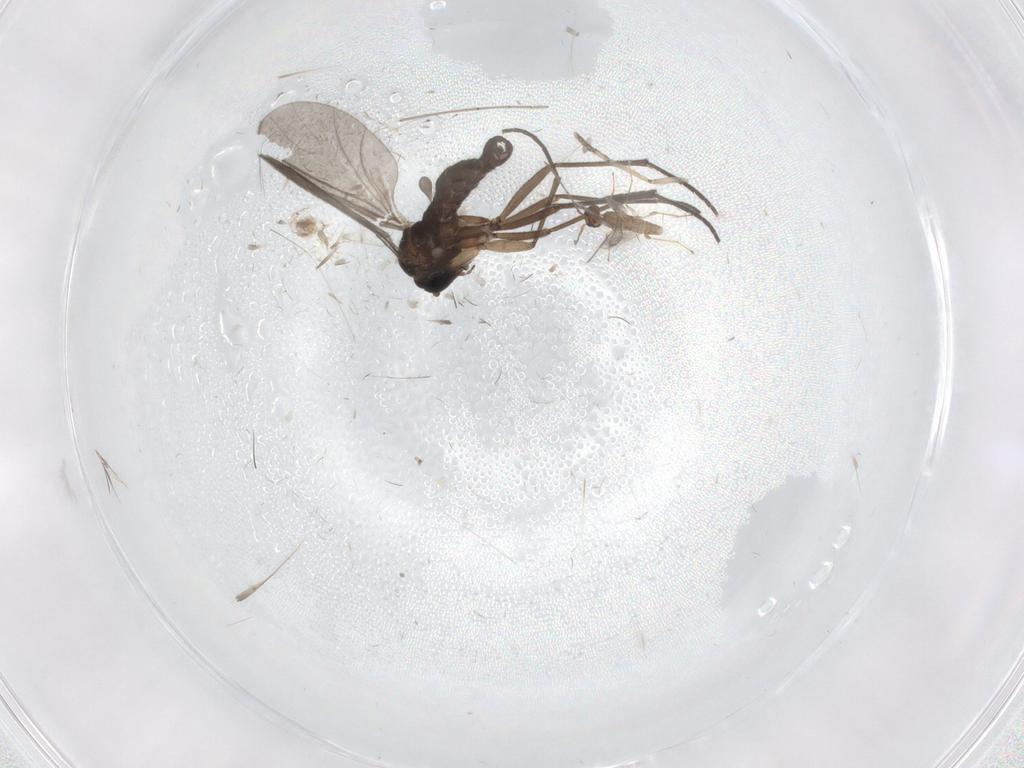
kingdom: Animalia
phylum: Arthropoda
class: Insecta
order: Diptera
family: Sciaridae
